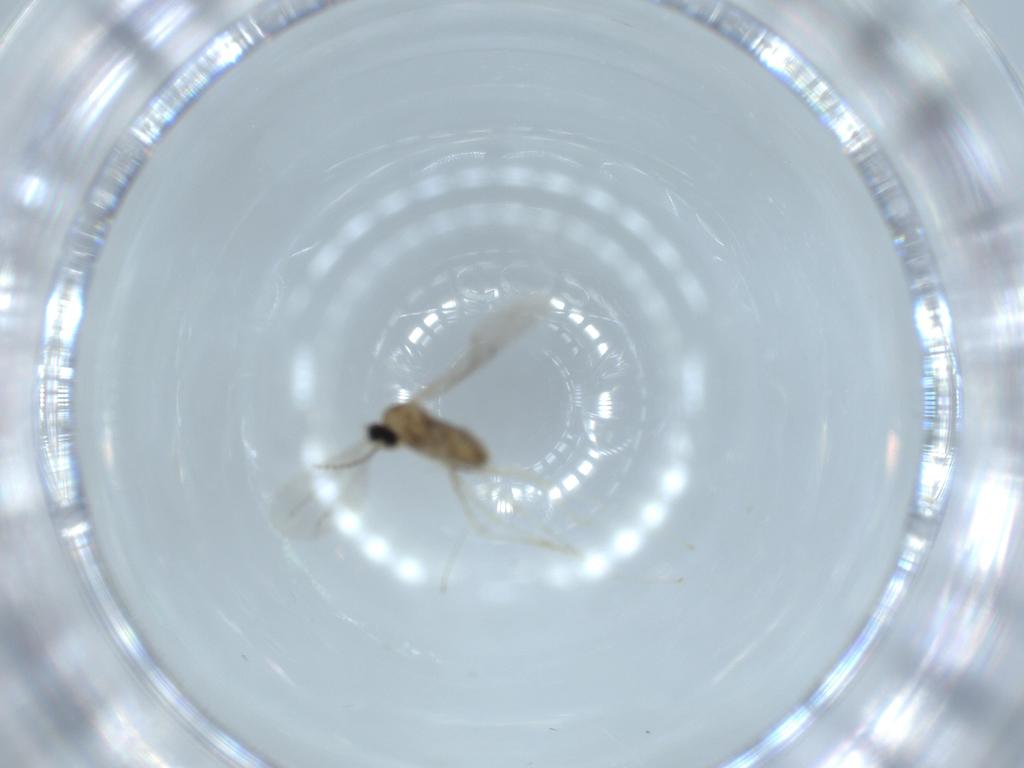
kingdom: Animalia
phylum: Arthropoda
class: Insecta
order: Diptera
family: Cecidomyiidae
